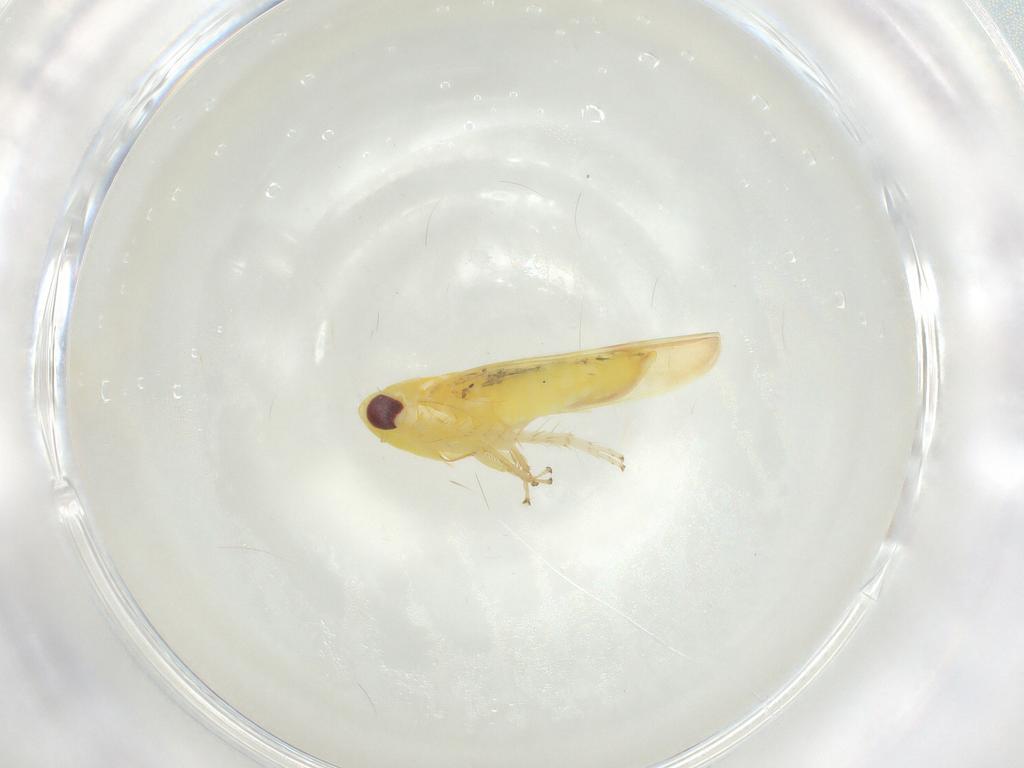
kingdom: Animalia
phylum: Arthropoda
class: Insecta
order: Hemiptera
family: Cicadellidae
